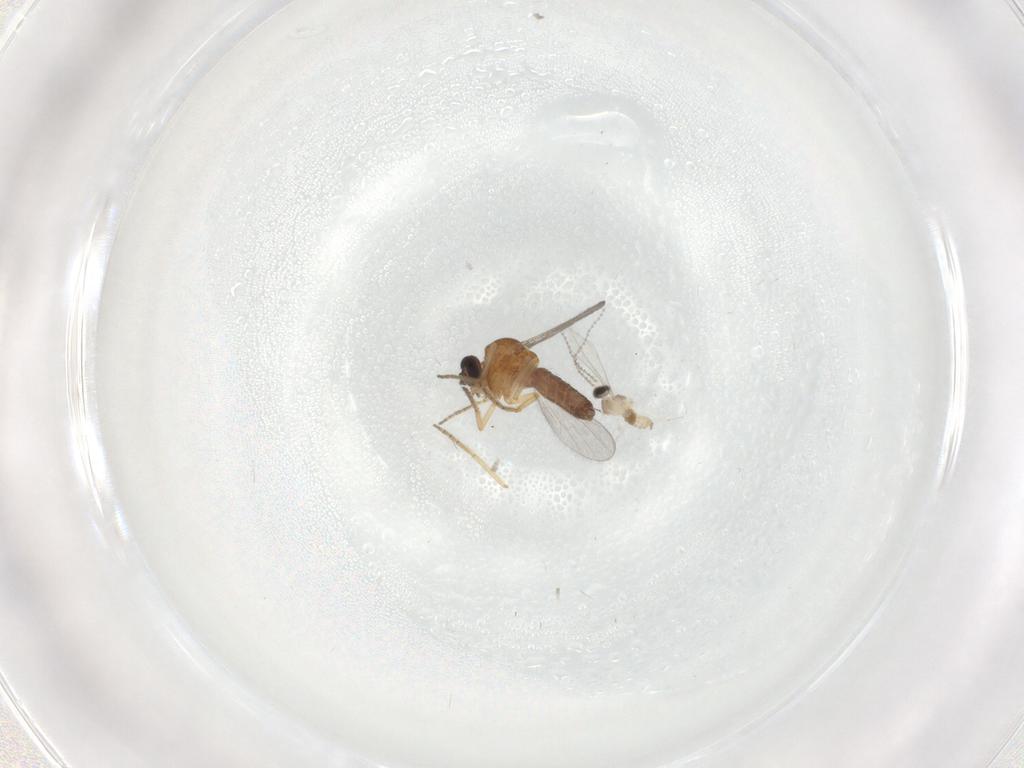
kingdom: Animalia
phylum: Arthropoda
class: Insecta
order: Diptera
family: Cecidomyiidae
